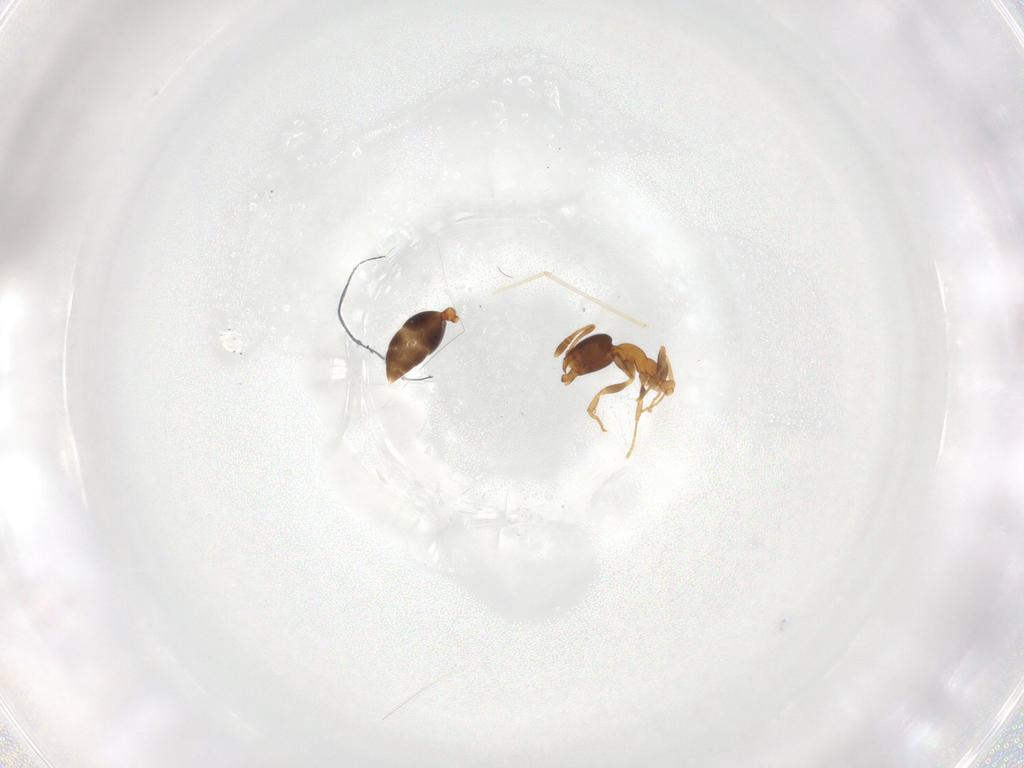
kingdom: Animalia
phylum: Arthropoda
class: Insecta
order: Hymenoptera
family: Formicidae
